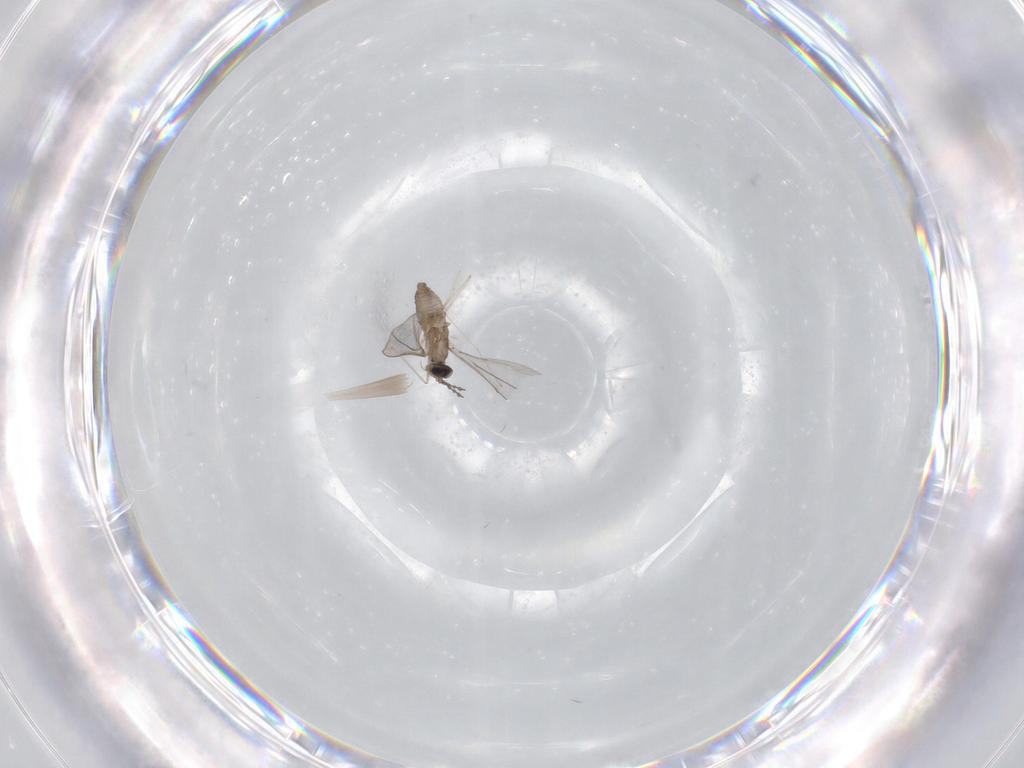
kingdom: Animalia
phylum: Arthropoda
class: Insecta
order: Diptera
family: Cecidomyiidae
